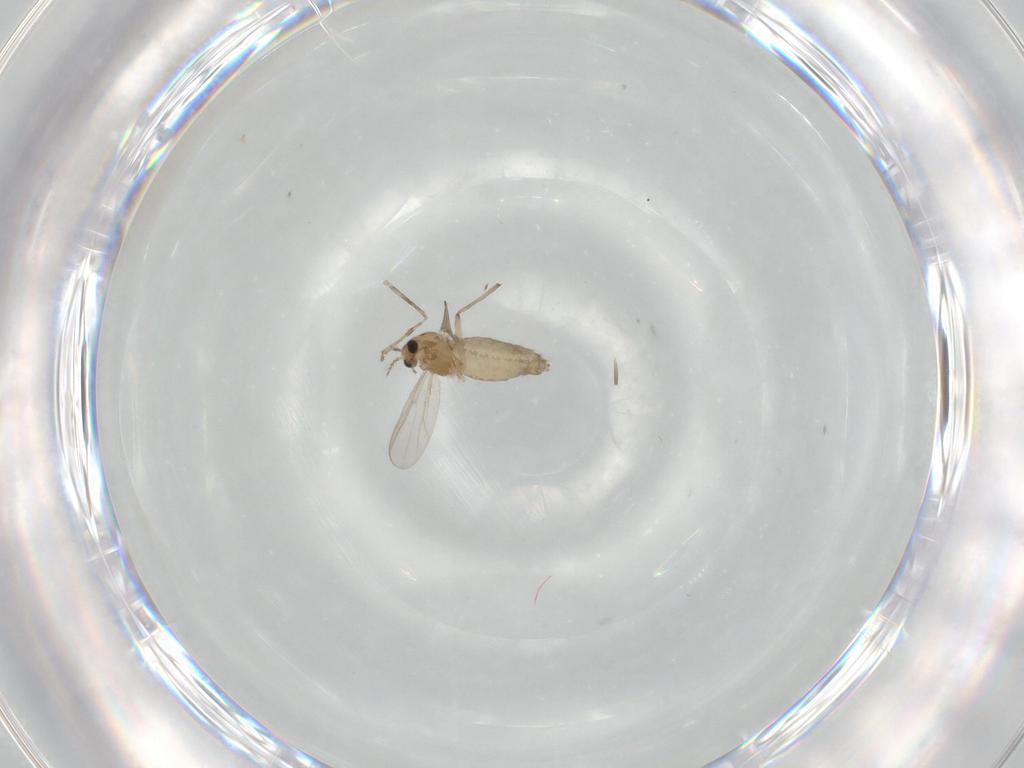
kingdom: Animalia
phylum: Arthropoda
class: Insecta
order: Diptera
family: Chironomidae
